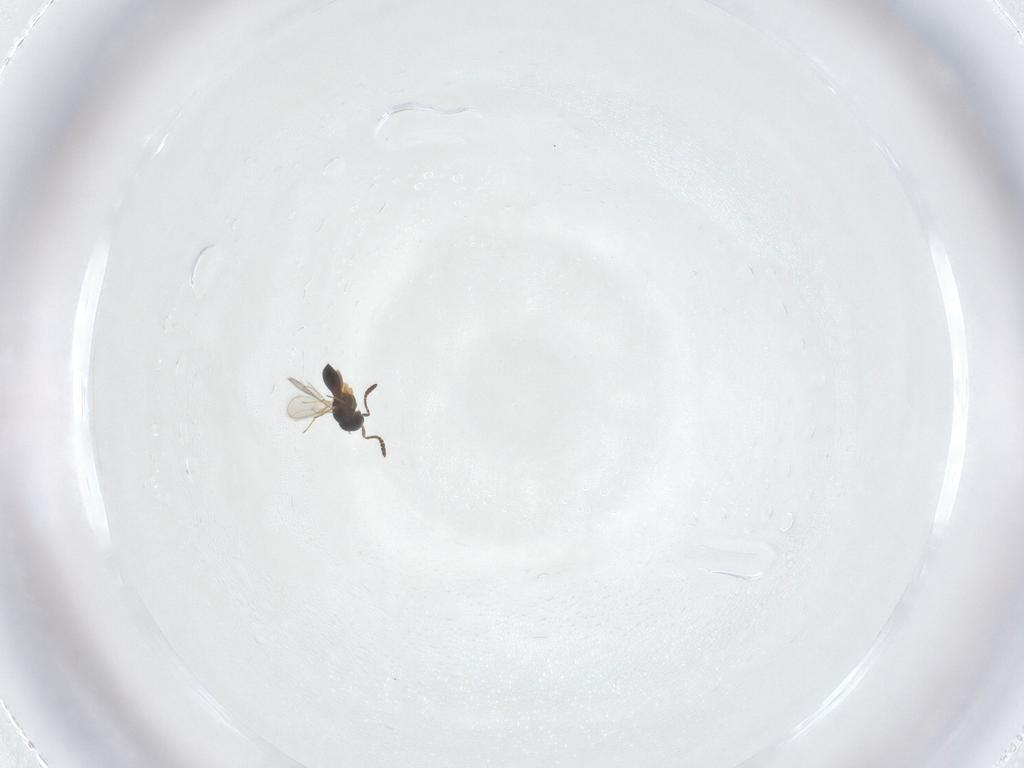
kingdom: Animalia
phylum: Arthropoda
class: Insecta
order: Hymenoptera
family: Scelionidae
